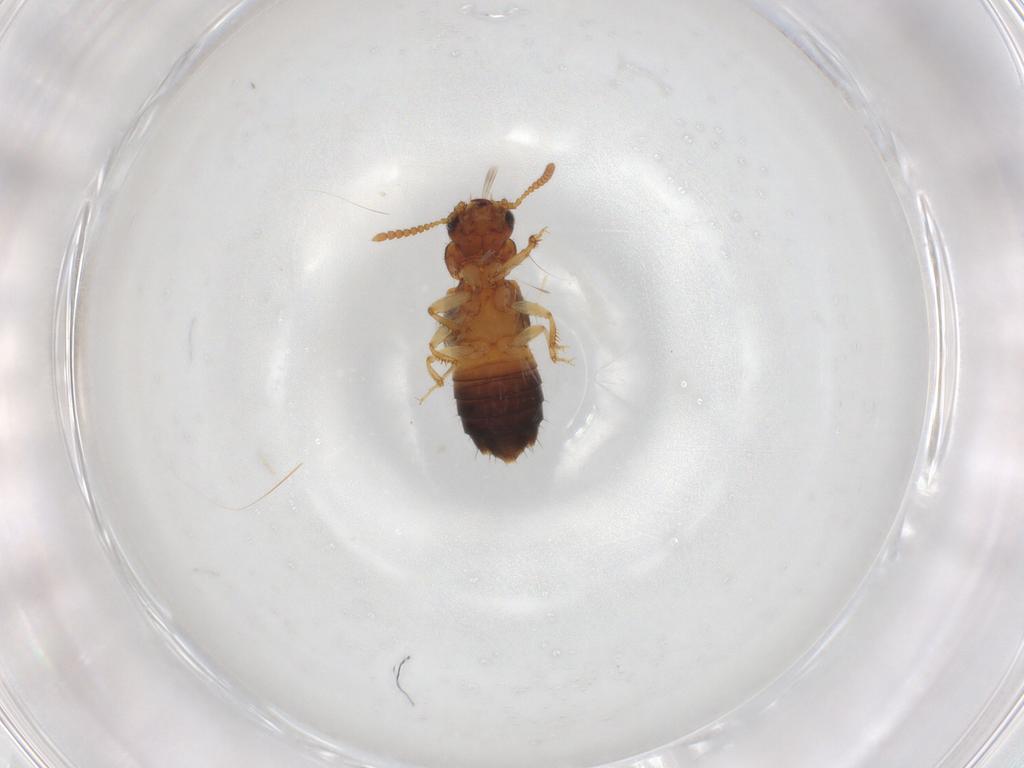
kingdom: Animalia
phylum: Arthropoda
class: Insecta
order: Coleoptera
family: Staphylinidae
